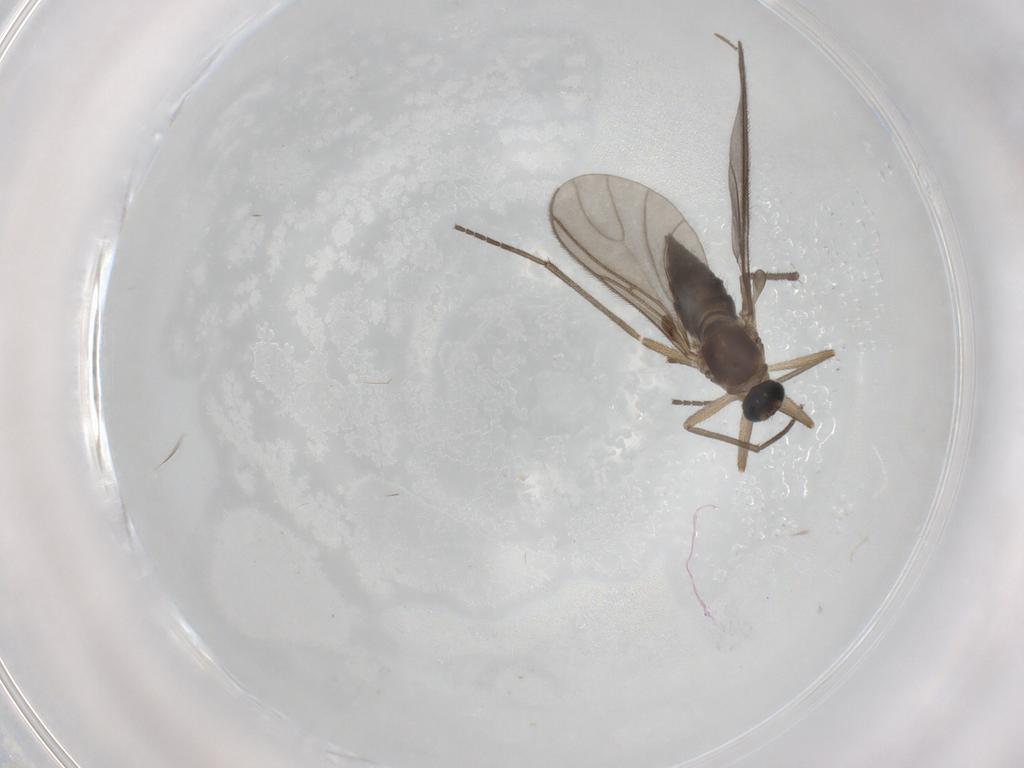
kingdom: Animalia
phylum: Arthropoda
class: Insecta
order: Diptera
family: Sciaridae
